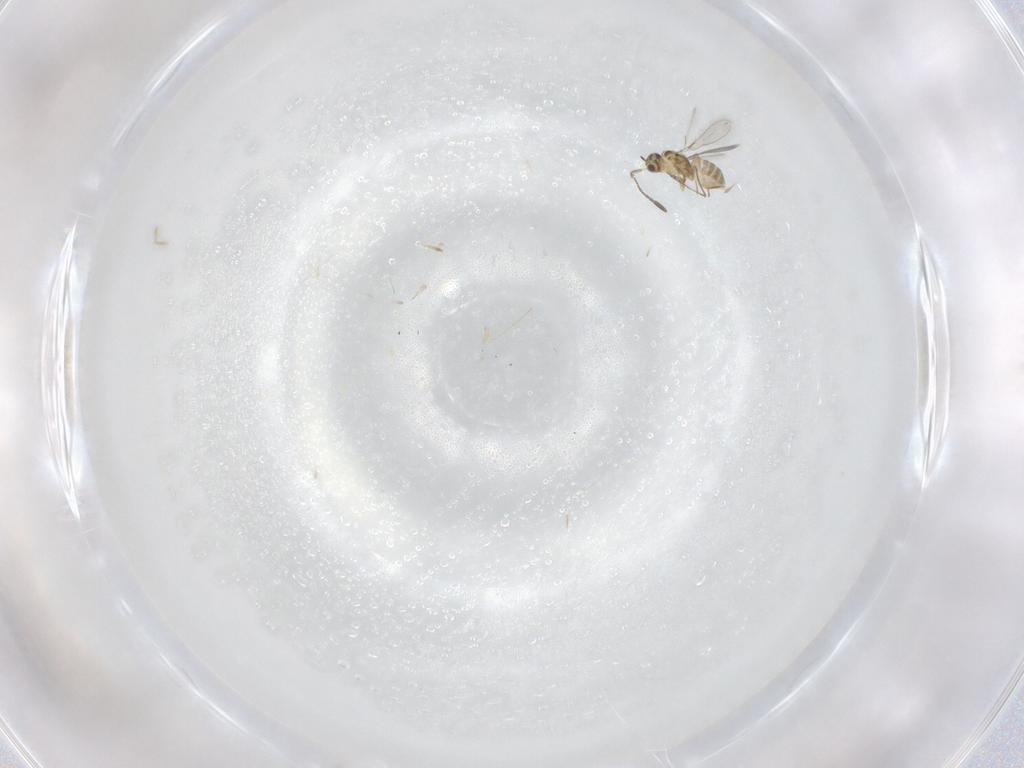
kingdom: Animalia
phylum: Arthropoda
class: Insecta
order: Hymenoptera
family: Mymaridae
